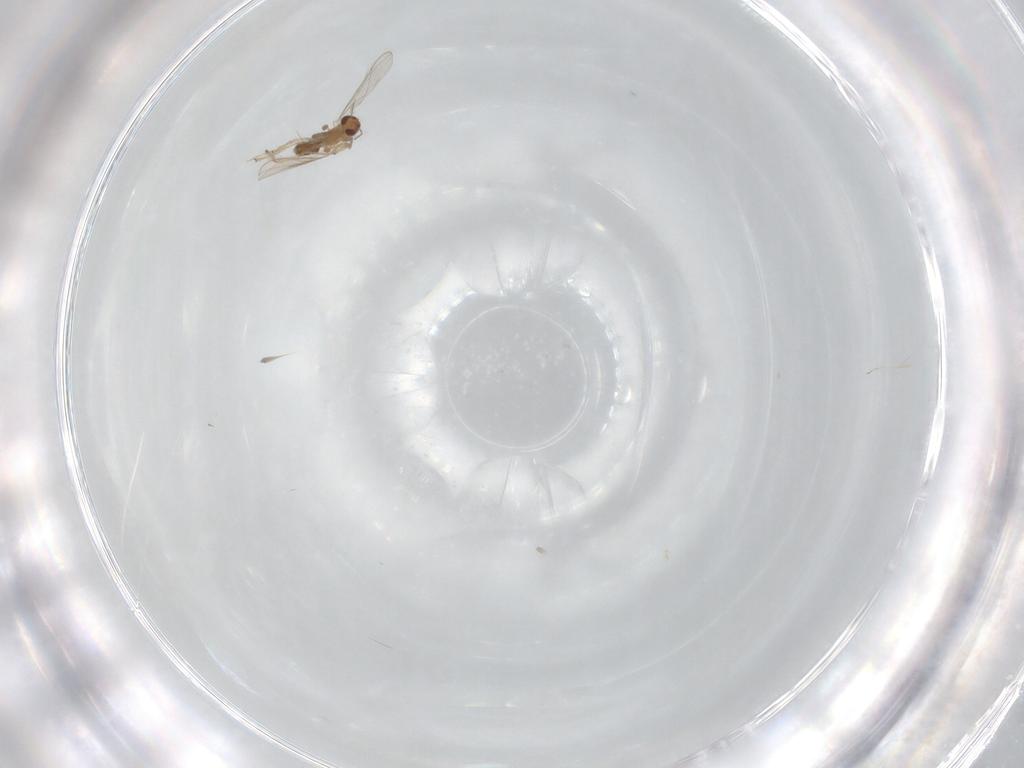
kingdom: Animalia
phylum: Arthropoda
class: Insecta
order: Diptera
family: Chironomidae
